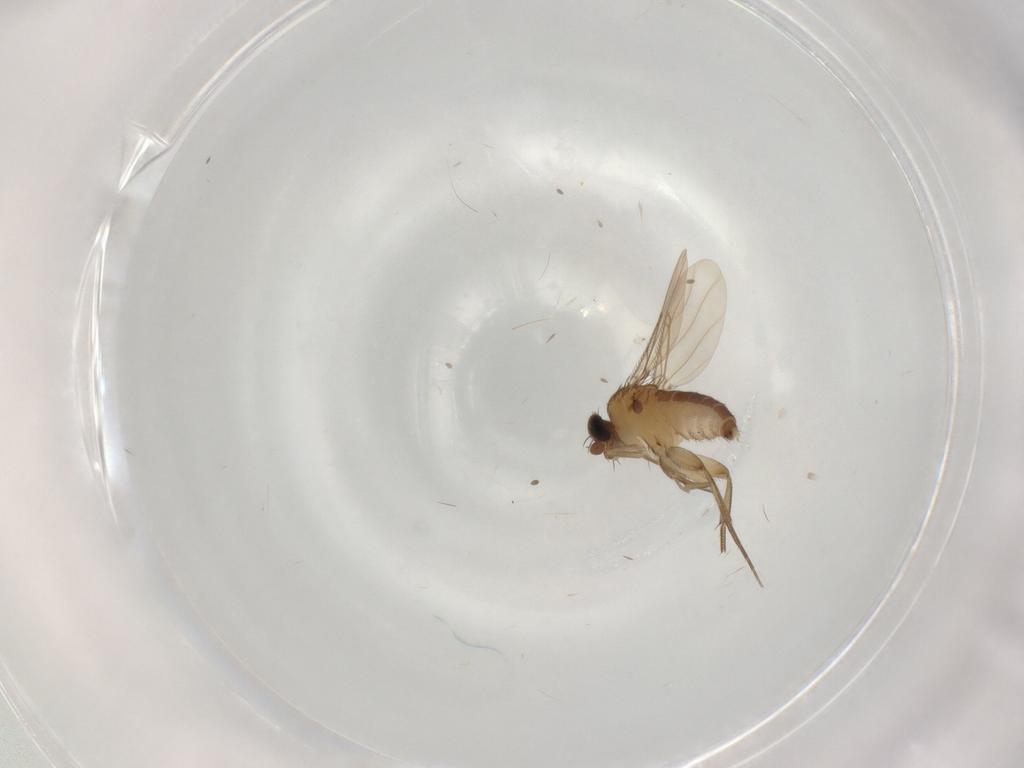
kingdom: Animalia
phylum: Arthropoda
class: Insecta
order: Diptera
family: Phoridae
